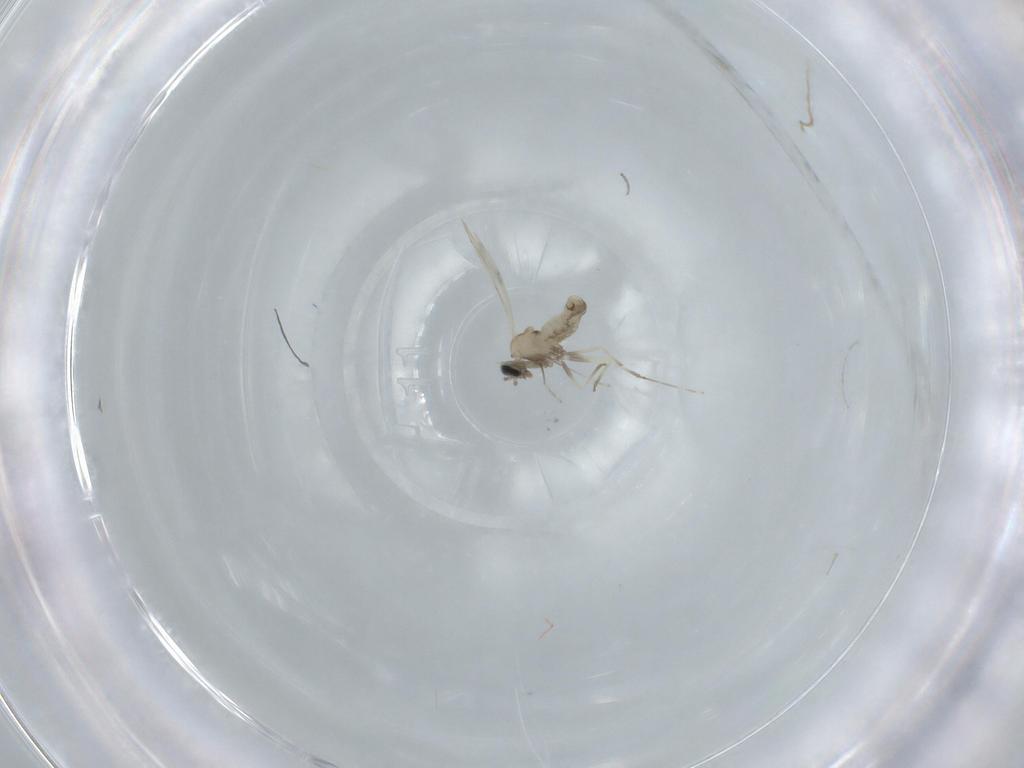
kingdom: Animalia
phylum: Arthropoda
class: Insecta
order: Diptera
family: Cecidomyiidae
